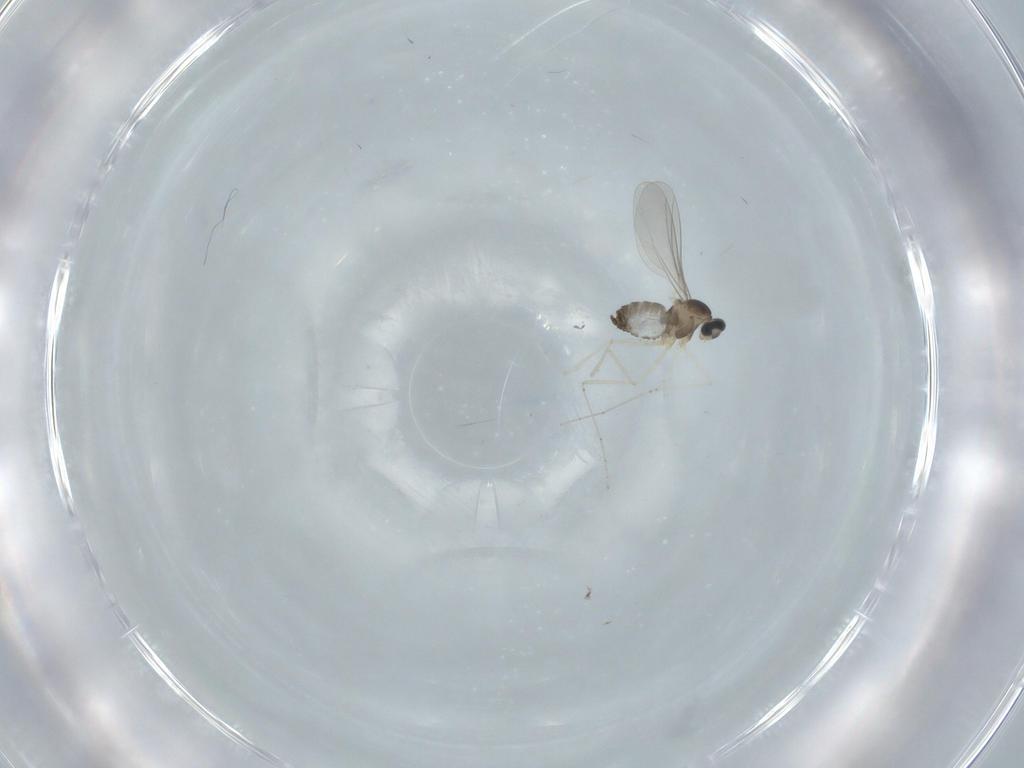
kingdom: Animalia
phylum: Arthropoda
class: Insecta
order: Diptera
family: Cecidomyiidae
